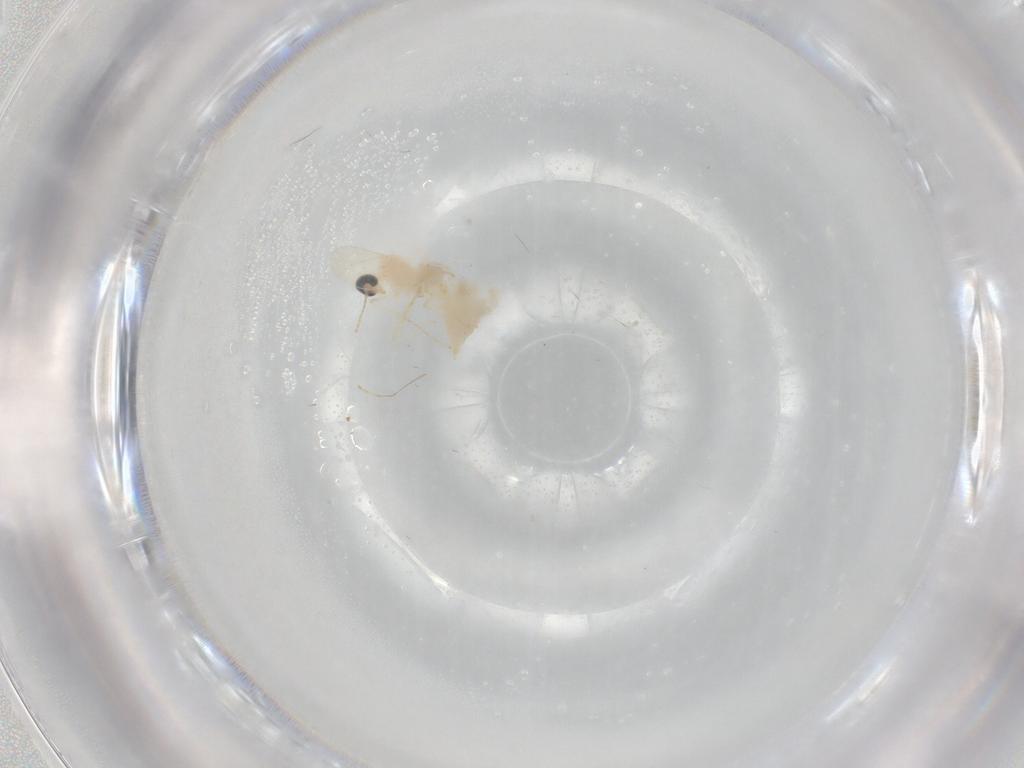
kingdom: Animalia
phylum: Arthropoda
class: Insecta
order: Diptera
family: Cecidomyiidae
